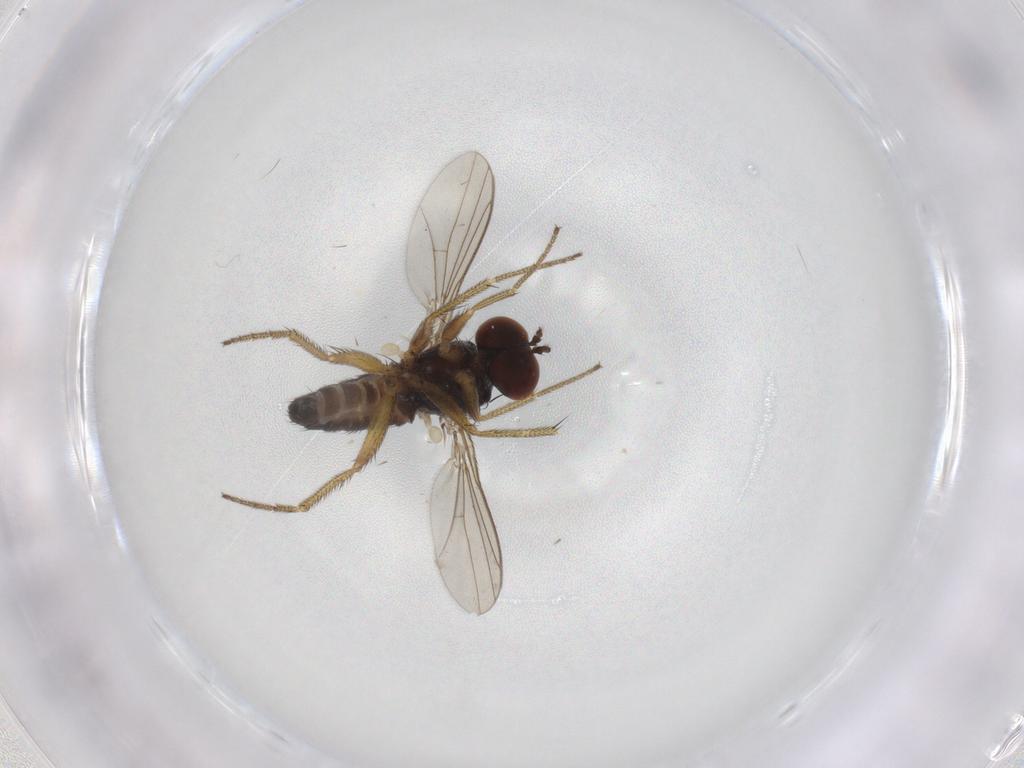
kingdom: Animalia
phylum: Arthropoda
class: Insecta
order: Diptera
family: Dolichopodidae
